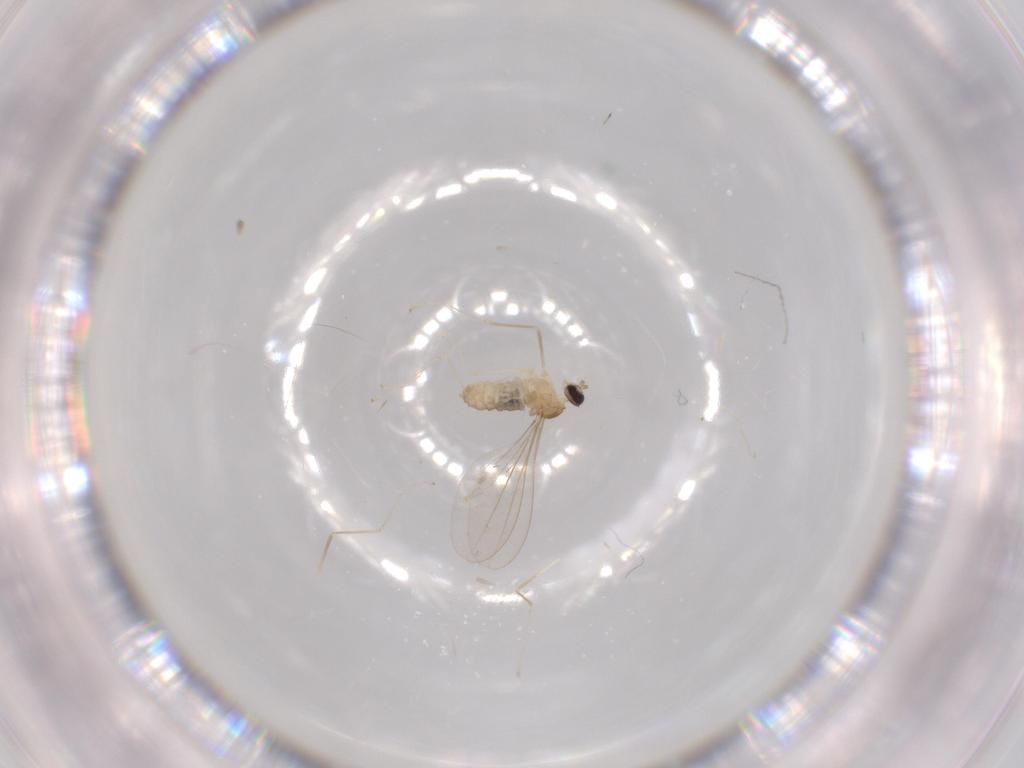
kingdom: Animalia
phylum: Arthropoda
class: Insecta
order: Diptera
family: Cecidomyiidae
